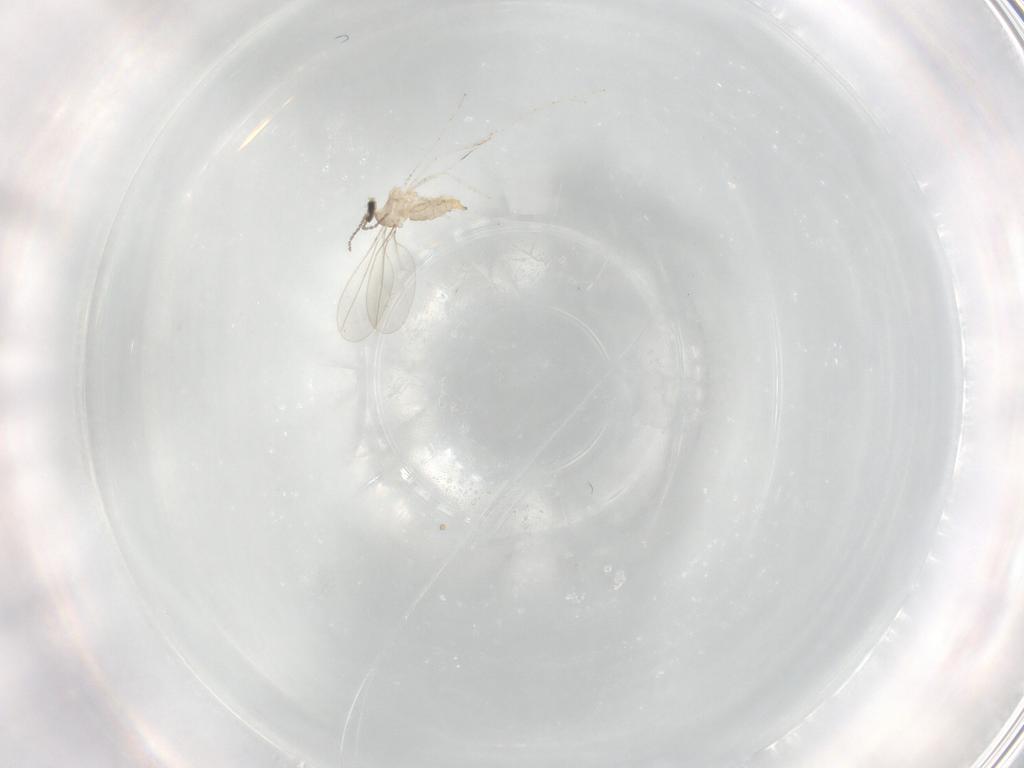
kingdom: Animalia
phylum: Arthropoda
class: Insecta
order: Diptera
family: Cecidomyiidae
